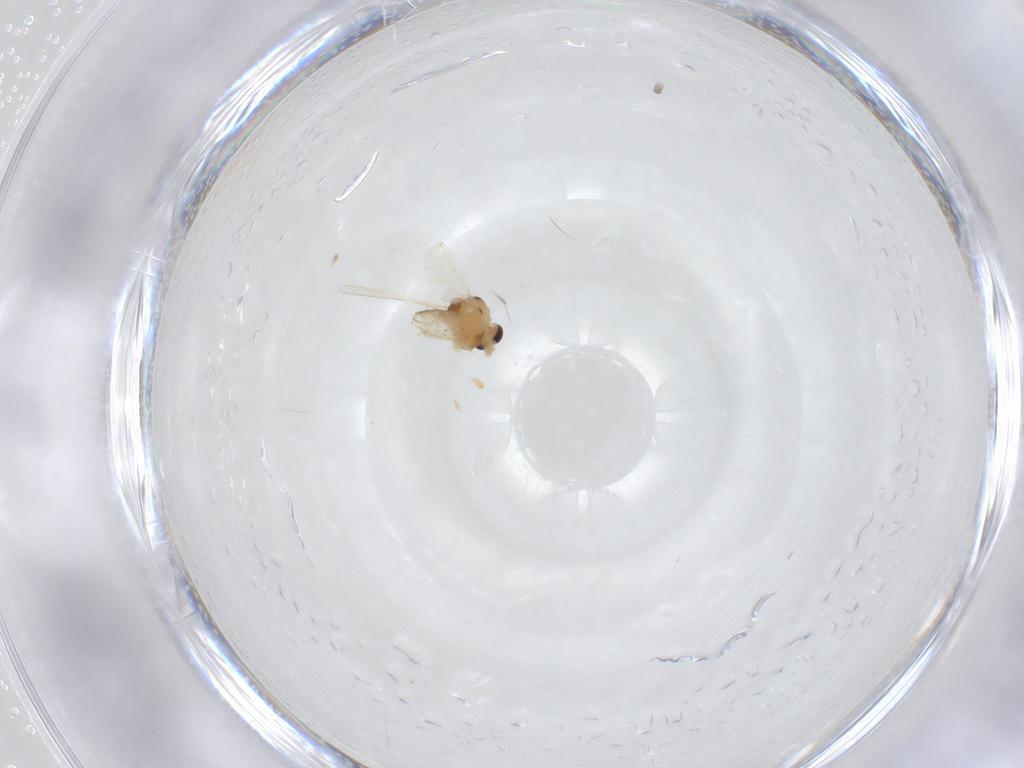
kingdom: Animalia
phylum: Arthropoda
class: Insecta
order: Diptera
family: Chironomidae
